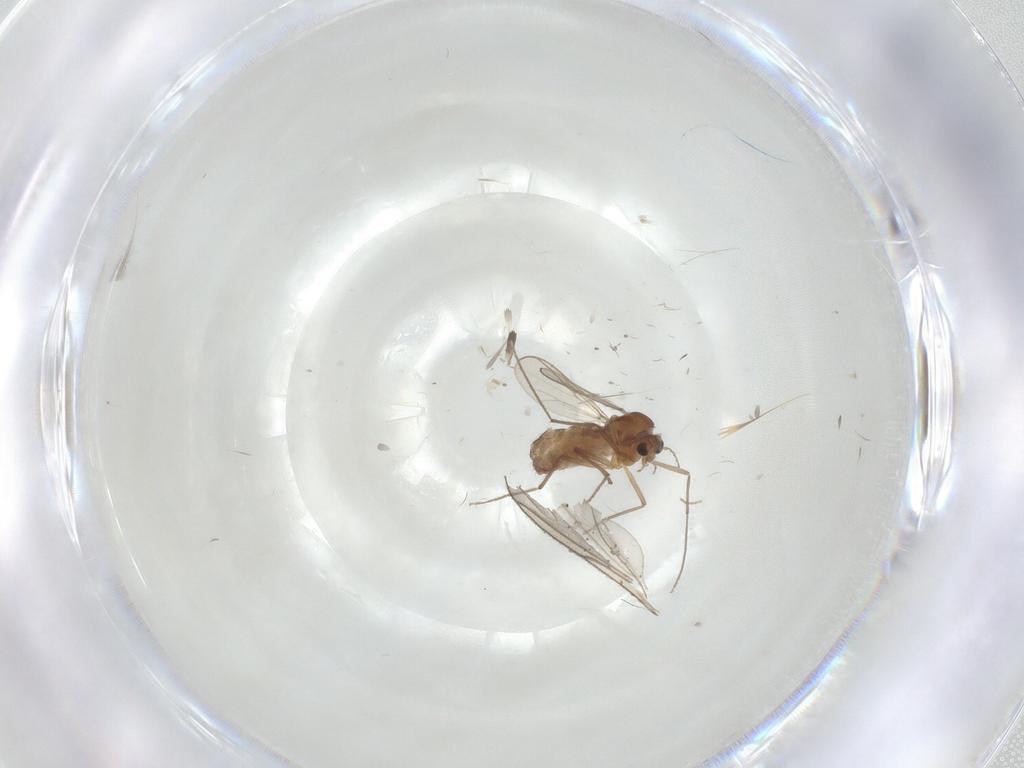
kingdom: Animalia
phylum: Arthropoda
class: Insecta
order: Diptera
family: Chironomidae
